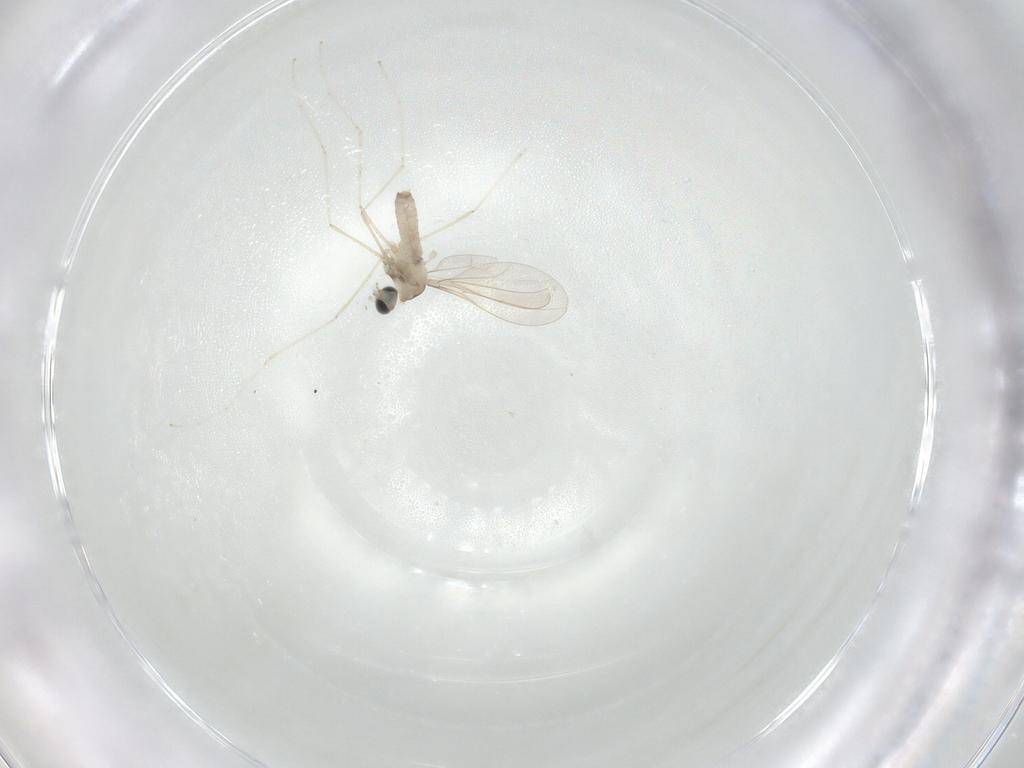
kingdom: Animalia
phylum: Arthropoda
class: Insecta
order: Diptera
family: Cecidomyiidae
